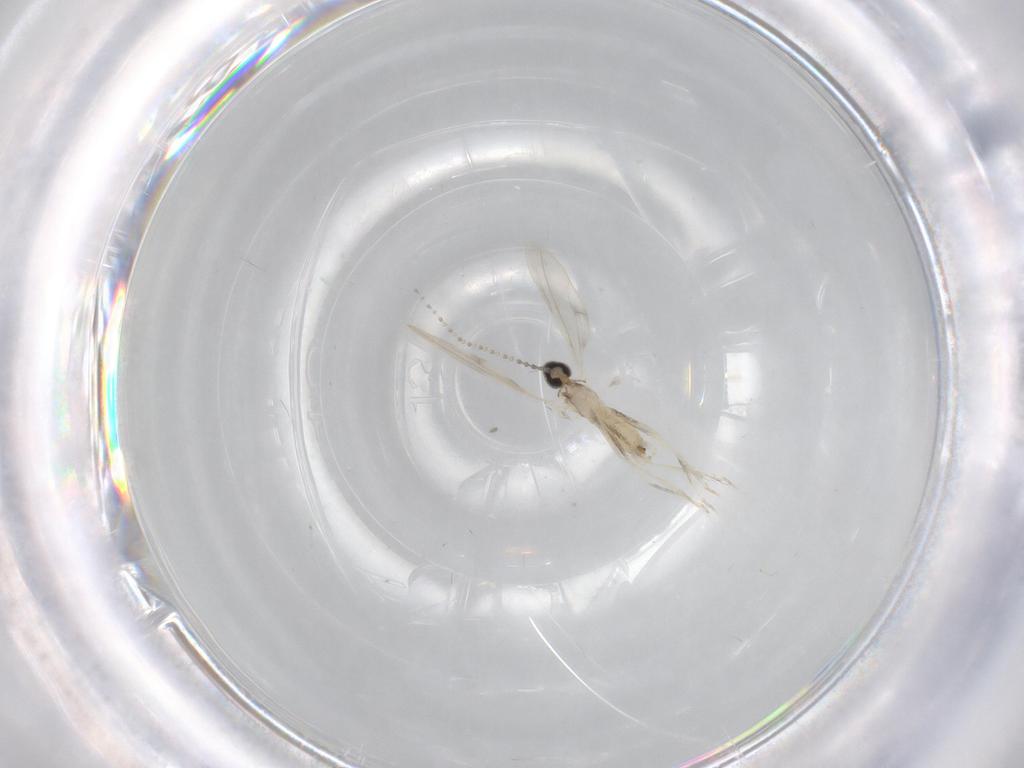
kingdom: Animalia
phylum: Arthropoda
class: Insecta
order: Diptera
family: Cecidomyiidae
